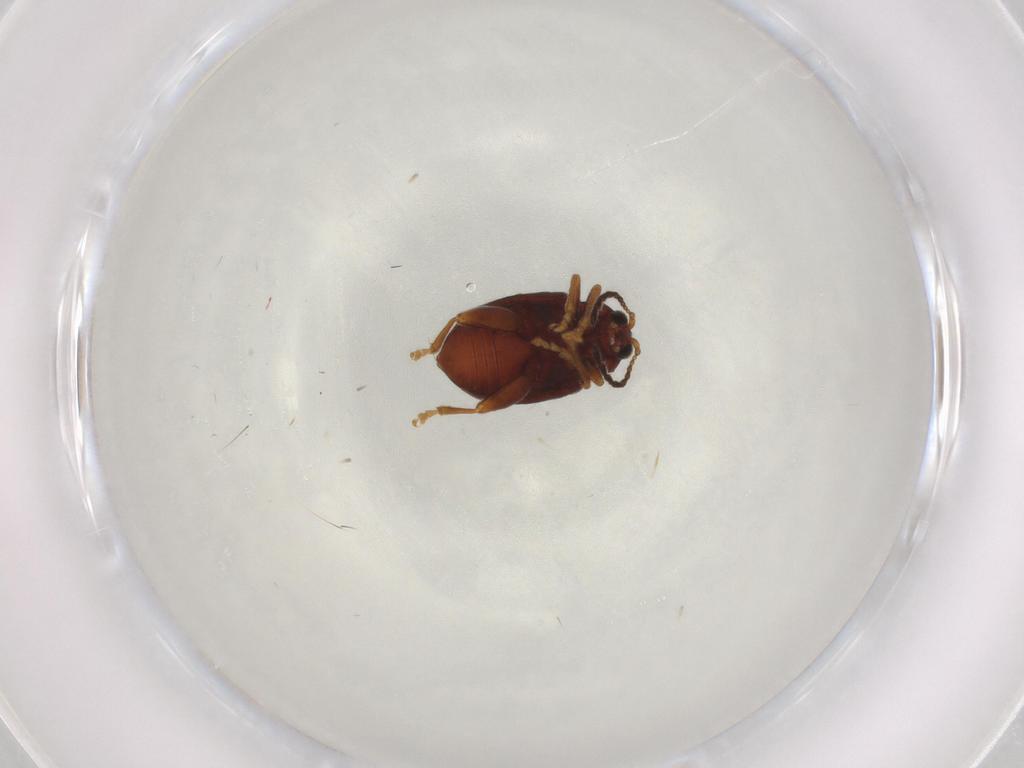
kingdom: Animalia
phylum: Arthropoda
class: Insecta
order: Coleoptera
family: Chrysomelidae
